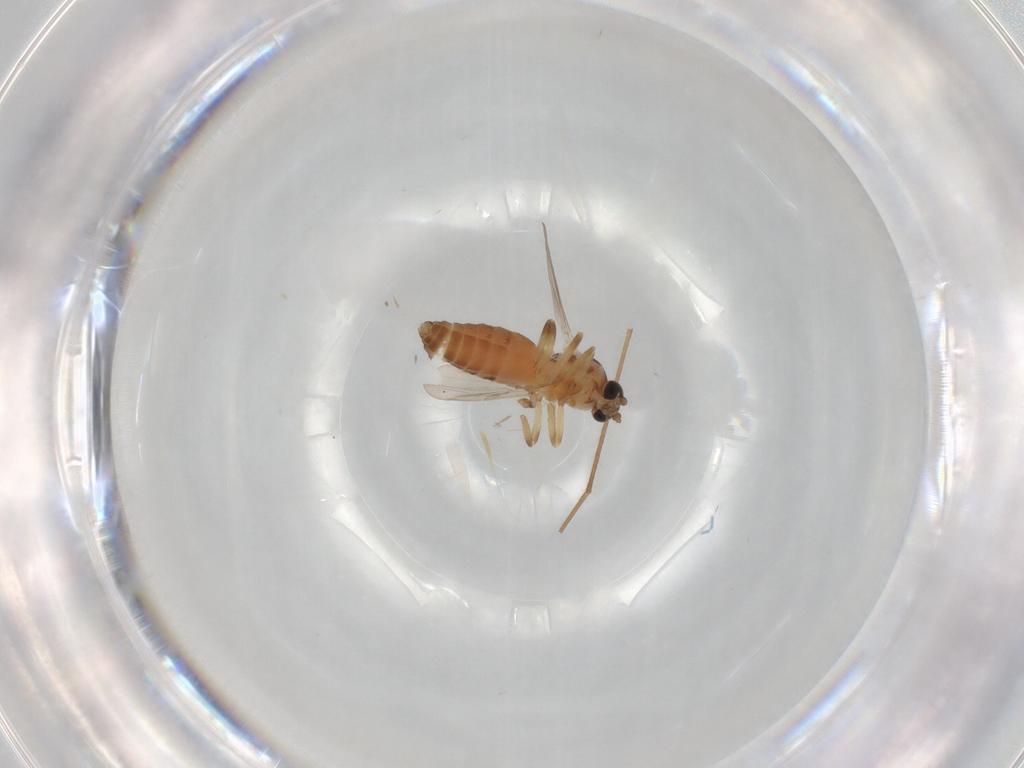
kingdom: Animalia
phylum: Arthropoda
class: Insecta
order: Diptera
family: Ceratopogonidae
